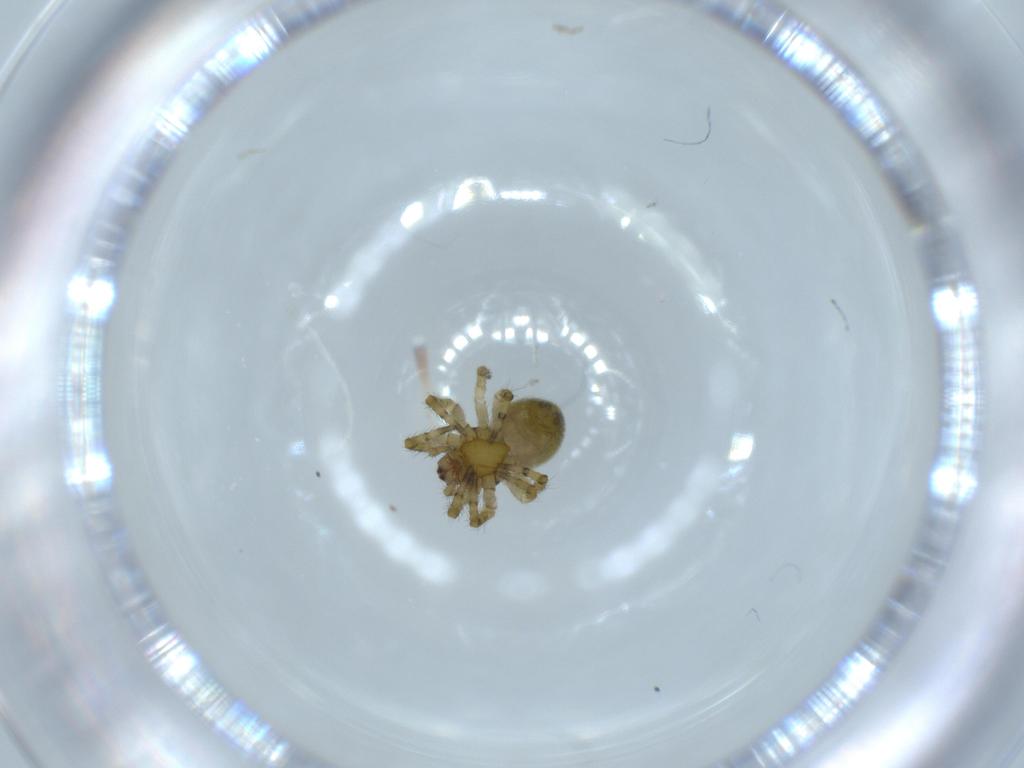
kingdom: Animalia
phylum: Arthropoda
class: Arachnida
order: Araneae
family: Araneidae
